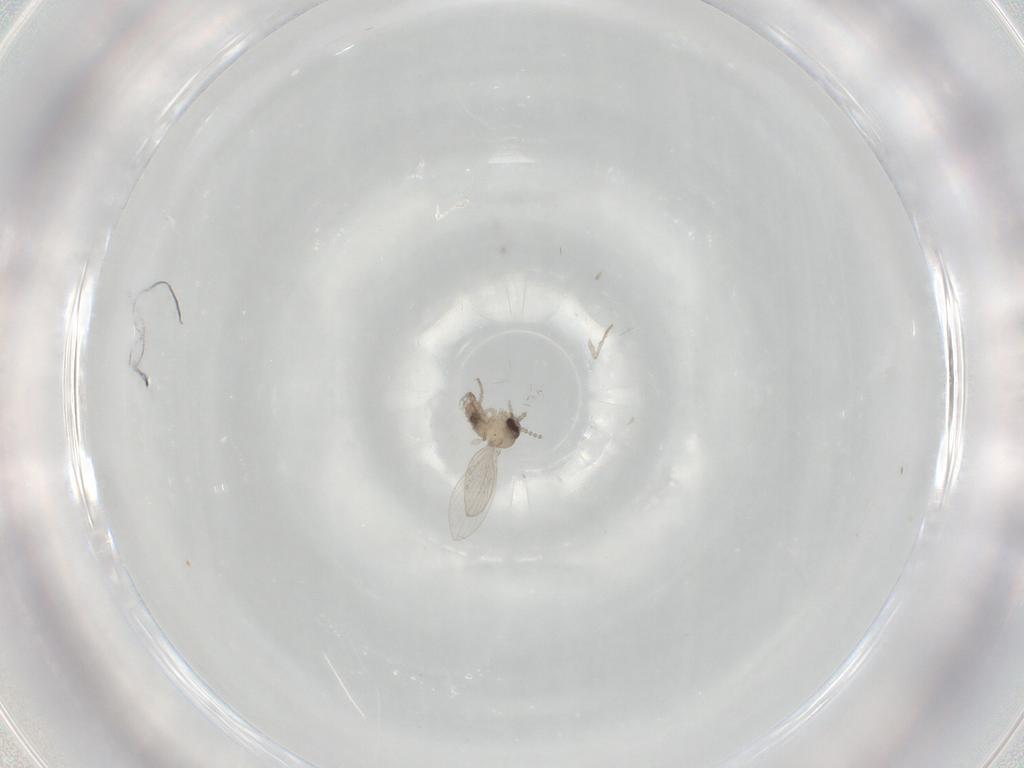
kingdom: Animalia
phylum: Arthropoda
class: Insecta
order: Diptera
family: Psychodidae
